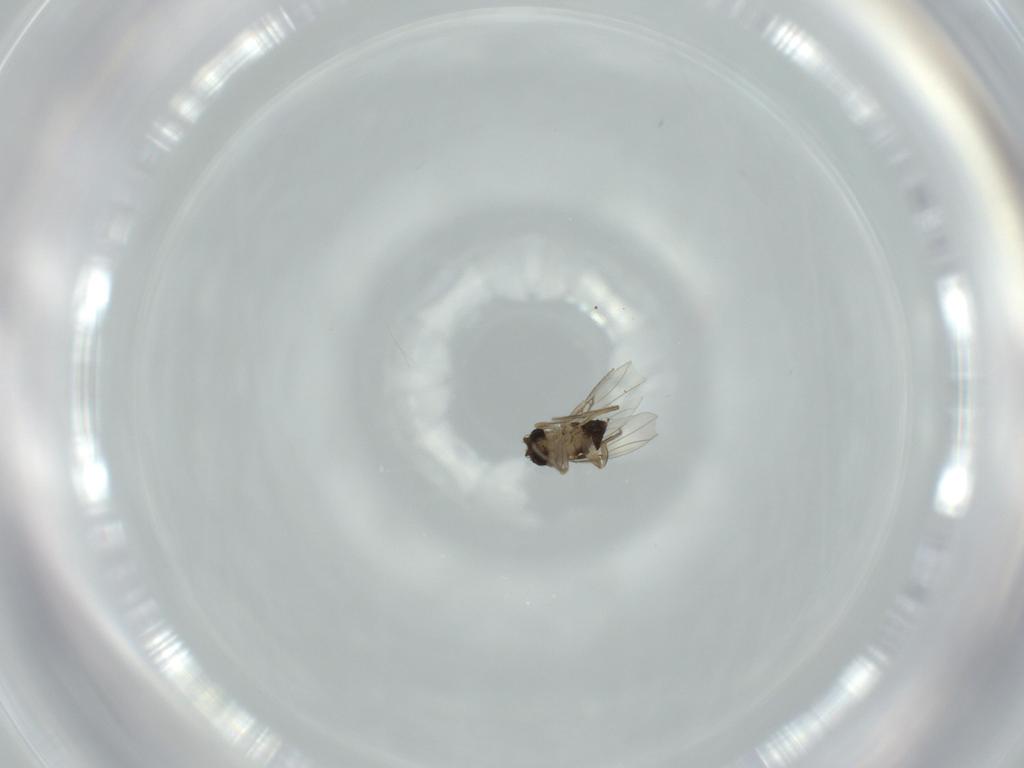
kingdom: Animalia
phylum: Arthropoda
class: Insecta
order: Diptera
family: Phoridae
